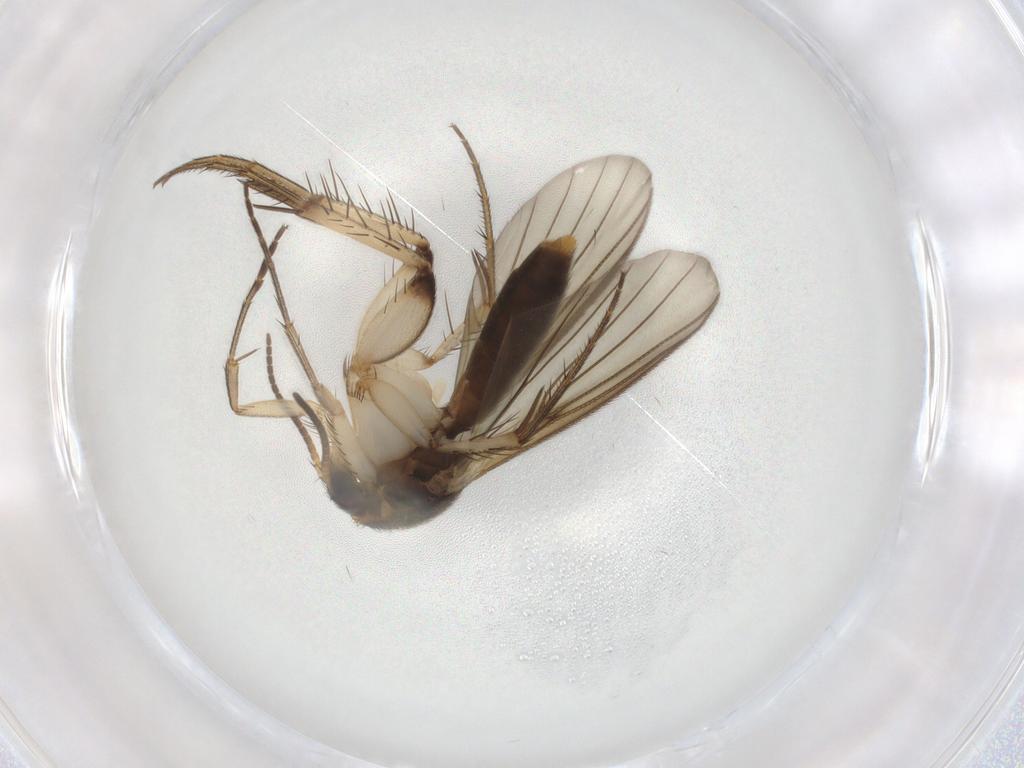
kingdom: Animalia
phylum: Arthropoda
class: Insecta
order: Diptera
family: Mycetophilidae
